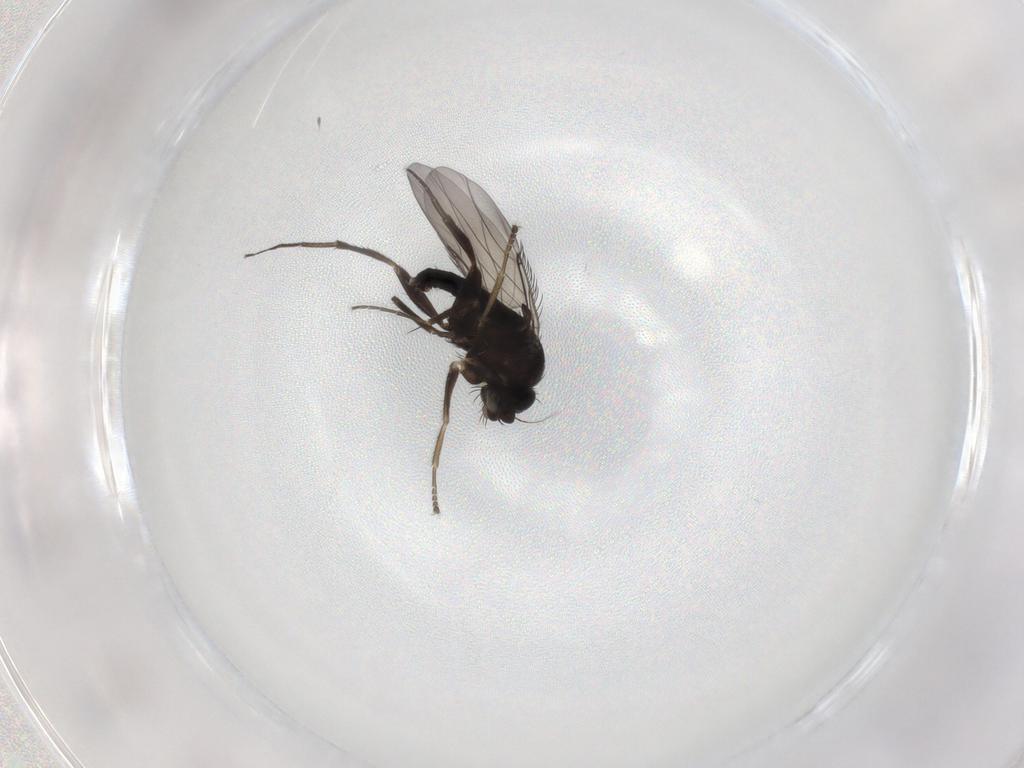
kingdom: Animalia
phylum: Arthropoda
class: Insecta
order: Diptera
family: Phoridae
